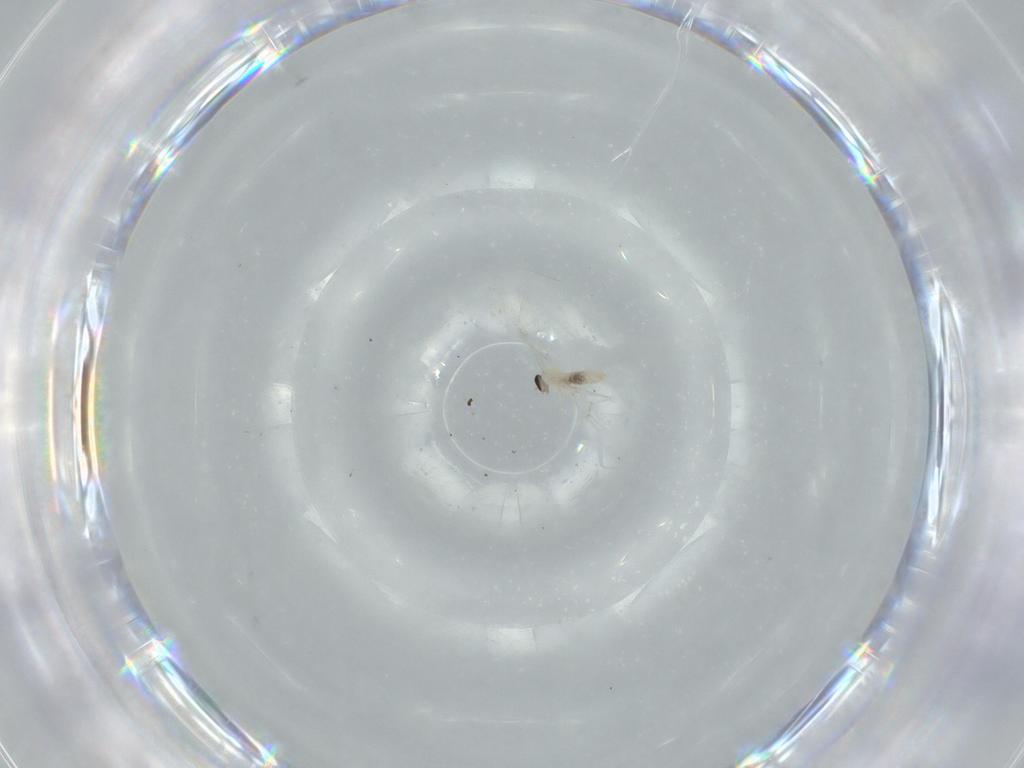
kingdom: Animalia
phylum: Arthropoda
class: Insecta
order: Diptera
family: Cecidomyiidae
